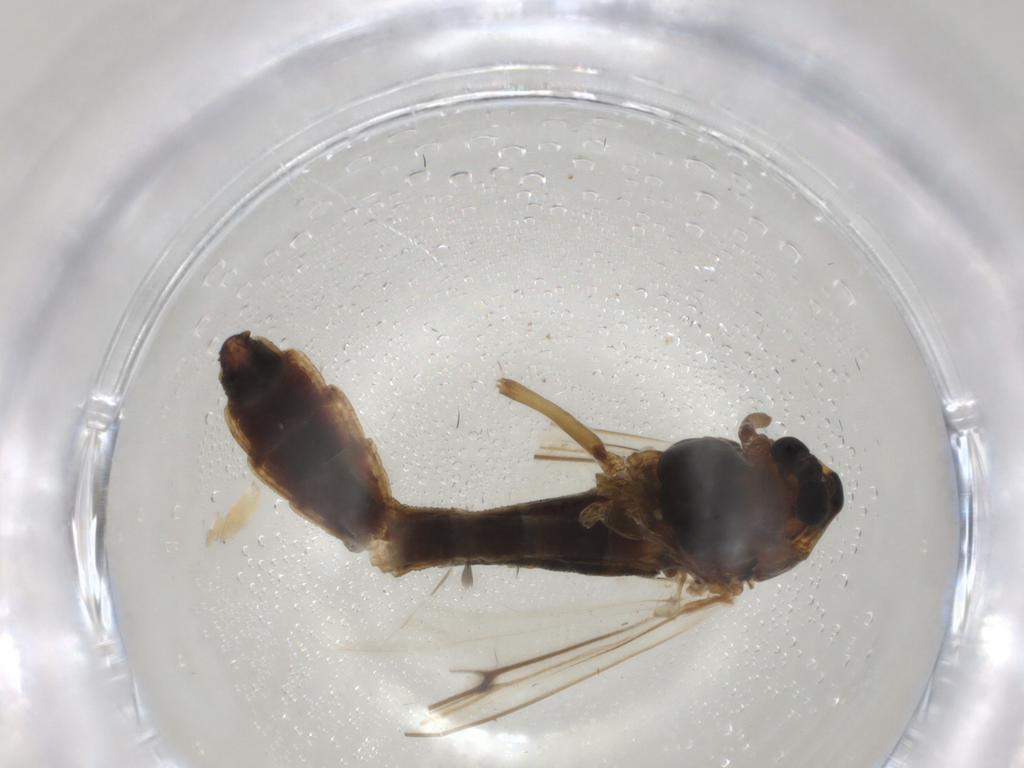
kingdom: Animalia
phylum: Arthropoda
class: Insecta
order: Diptera
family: Chironomidae
